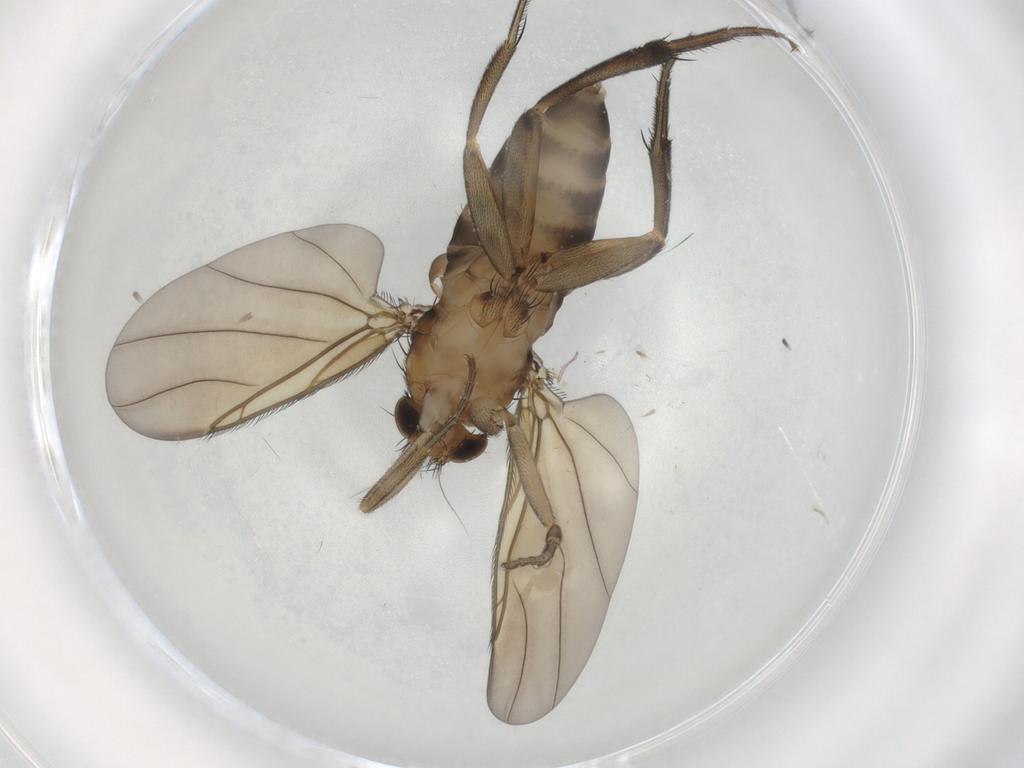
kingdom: Animalia
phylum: Arthropoda
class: Insecta
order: Diptera
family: Phoridae
